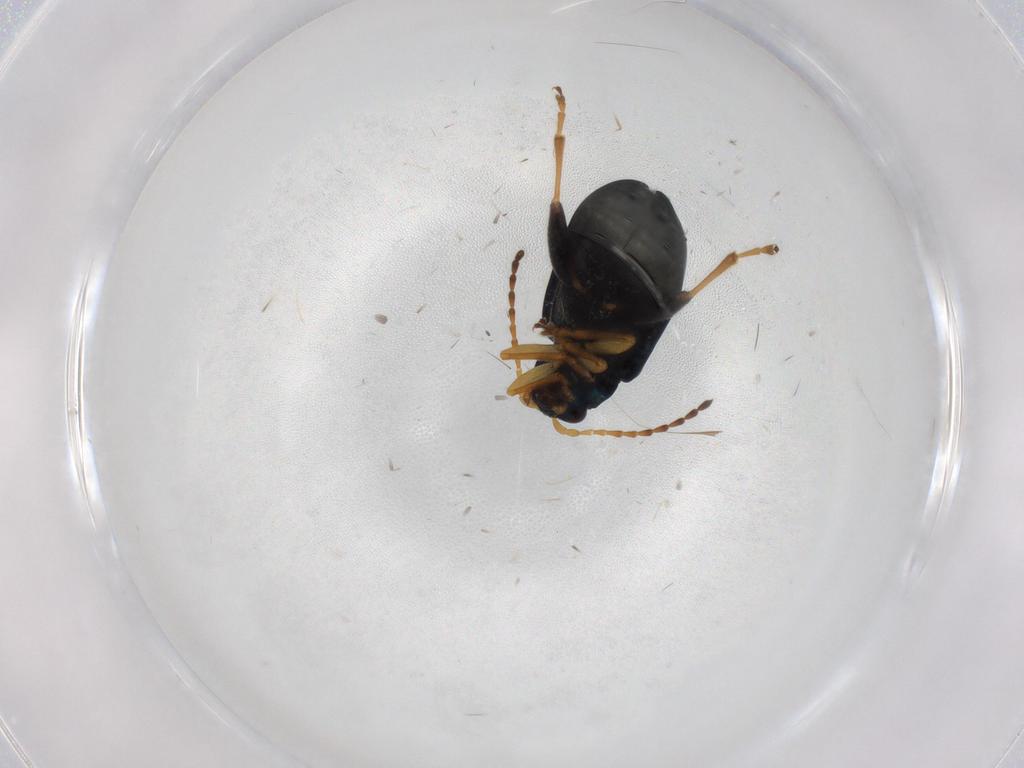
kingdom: Animalia
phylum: Arthropoda
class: Insecta
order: Coleoptera
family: Chrysomelidae
